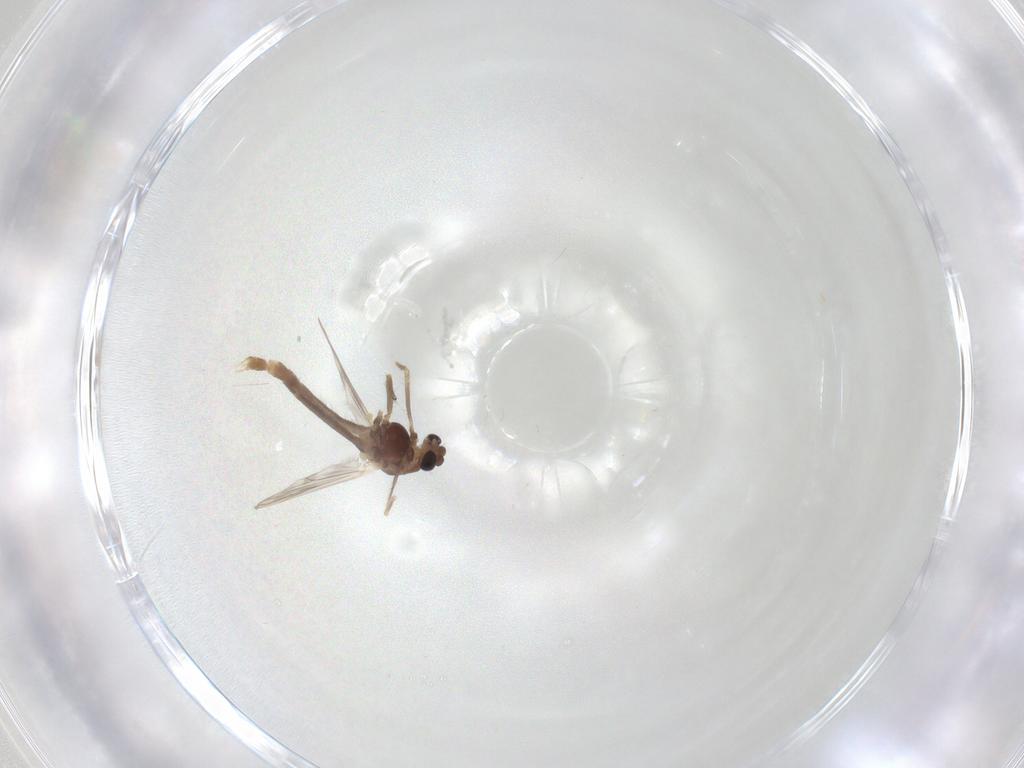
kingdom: Animalia
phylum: Arthropoda
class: Insecta
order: Diptera
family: Chironomidae
